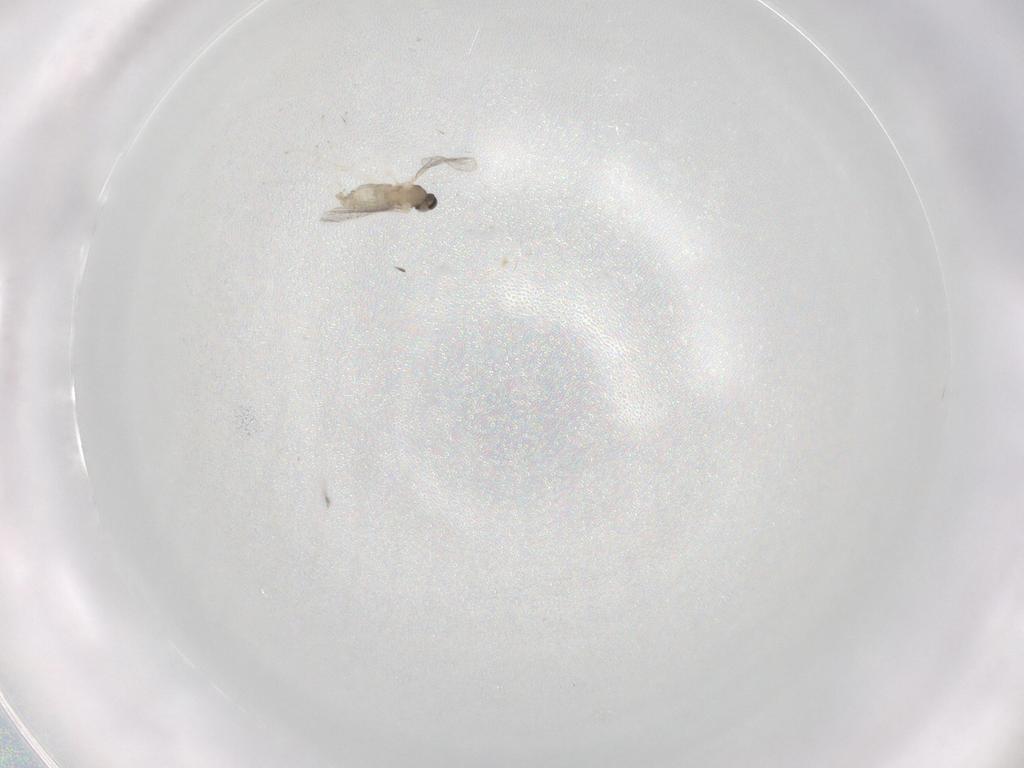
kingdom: Animalia
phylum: Arthropoda
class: Insecta
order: Diptera
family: Cecidomyiidae
